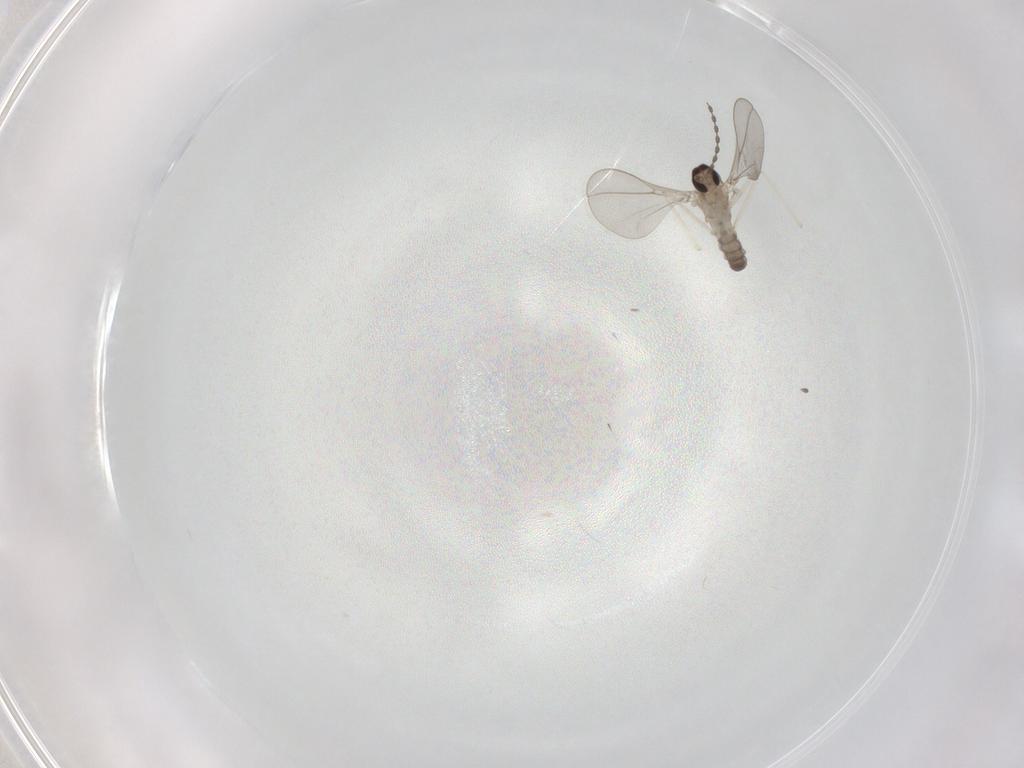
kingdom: Animalia
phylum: Arthropoda
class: Insecta
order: Diptera
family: Cecidomyiidae
